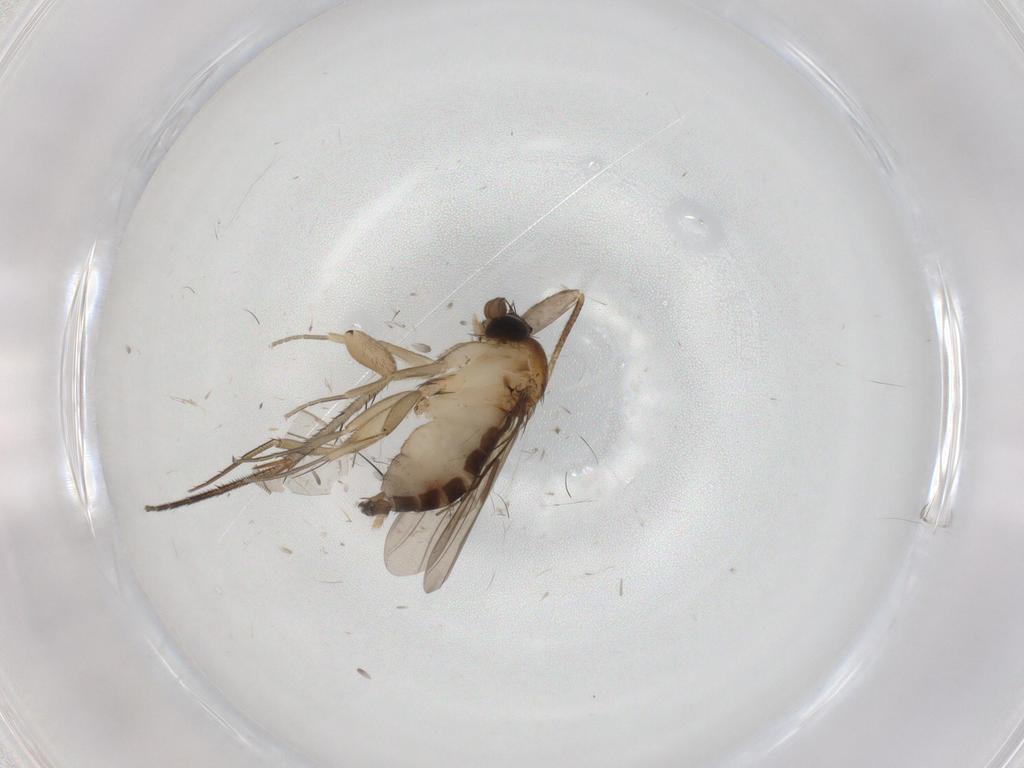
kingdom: Animalia
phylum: Arthropoda
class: Insecta
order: Diptera
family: Phoridae
